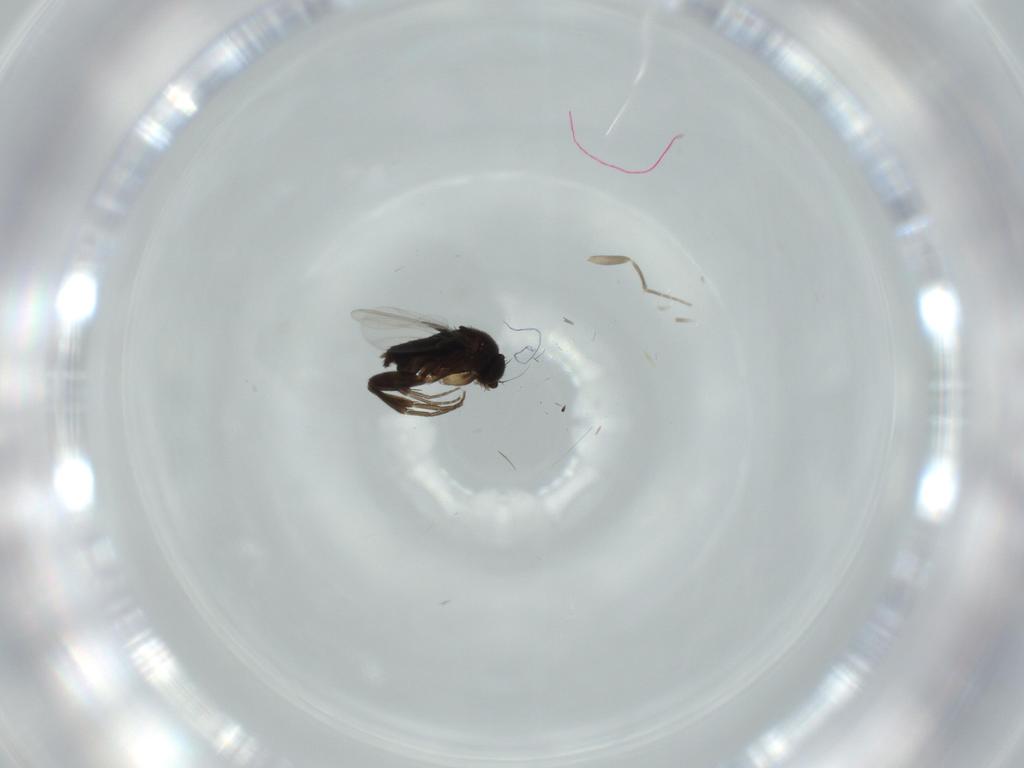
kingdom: Animalia
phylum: Arthropoda
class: Insecta
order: Diptera
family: Phoridae
